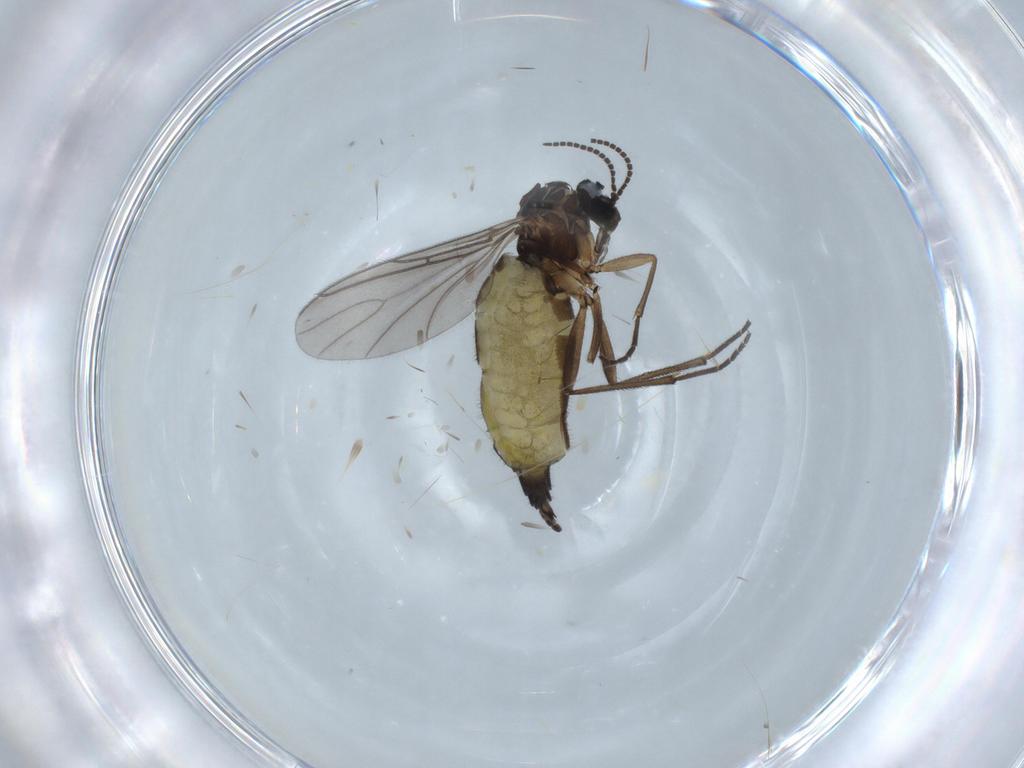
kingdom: Animalia
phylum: Arthropoda
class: Insecta
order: Diptera
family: Sciaridae
